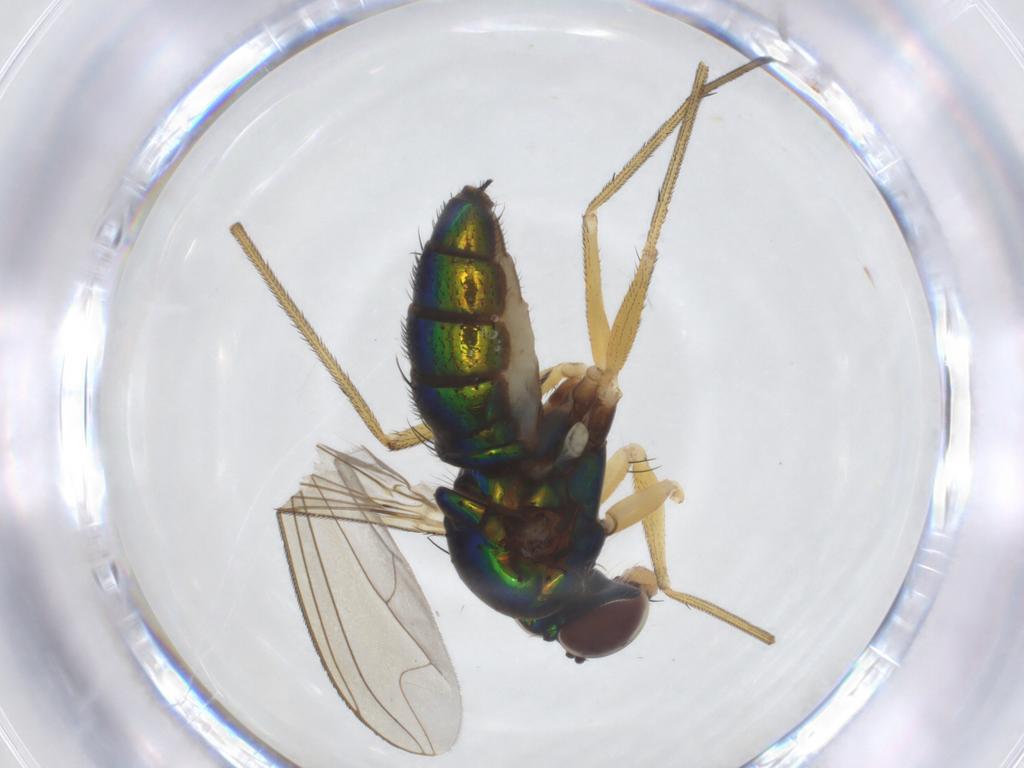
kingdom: Animalia
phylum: Arthropoda
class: Insecta
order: Diptera
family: Dolichopodidae
